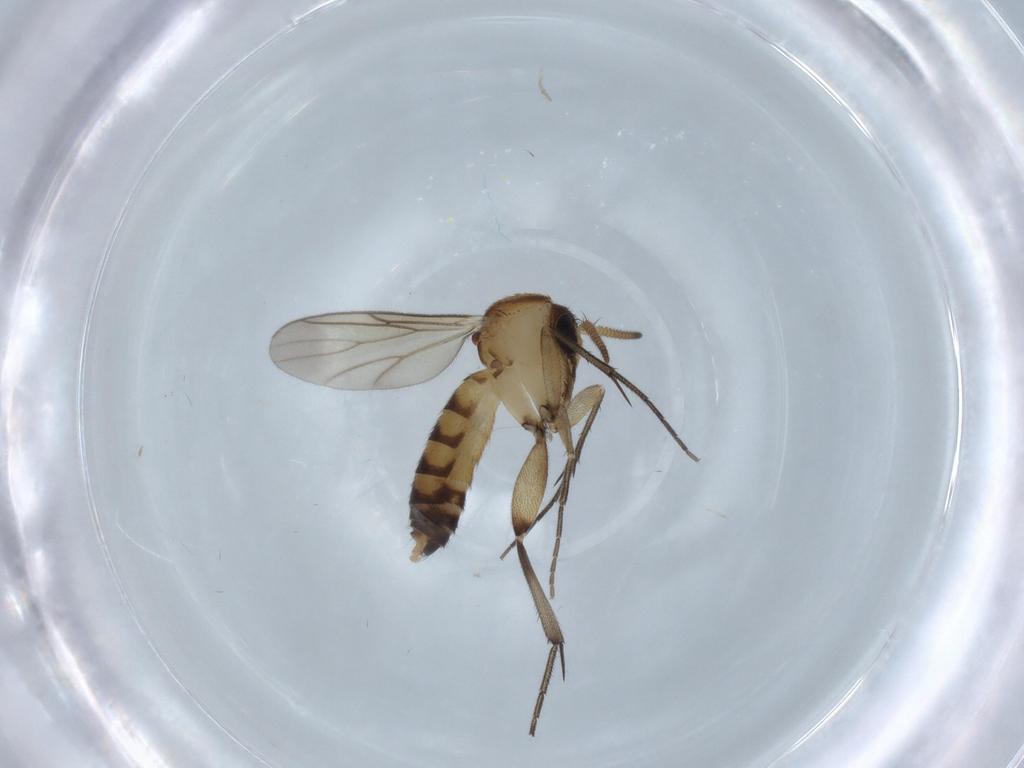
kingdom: Animalia
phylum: Arthropoda
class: Insecta
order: Diptera
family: Mycetophilidae
